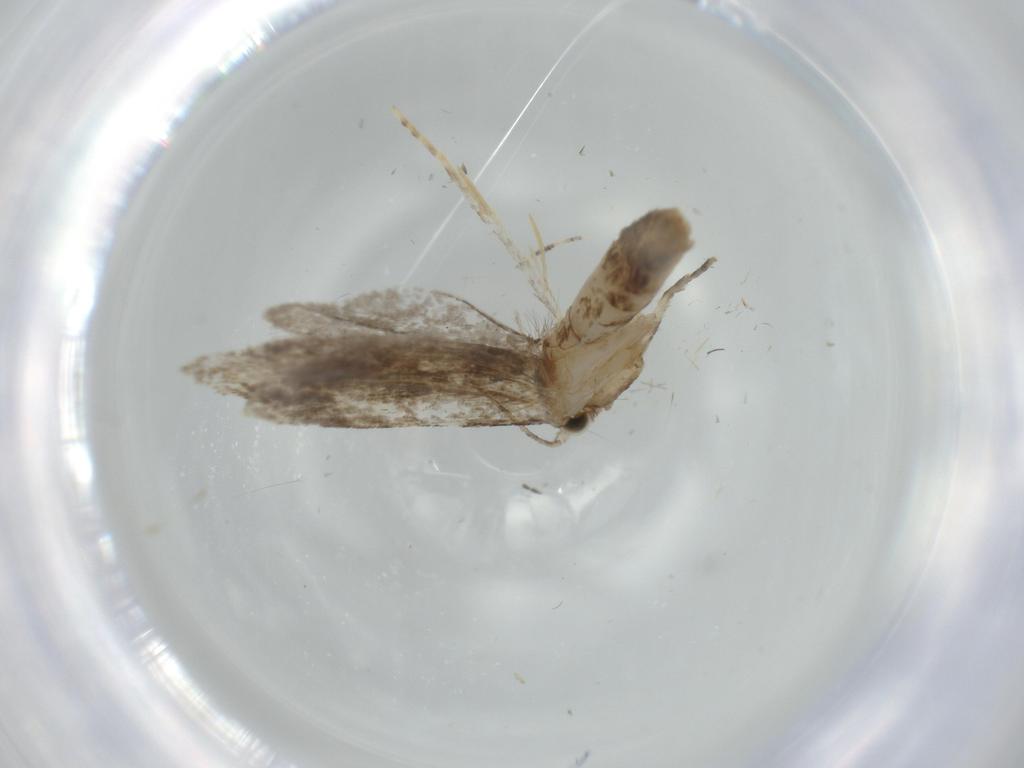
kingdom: Animalia
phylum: Arthropoda
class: Insecta
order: Lepidoptera
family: Tineidae
